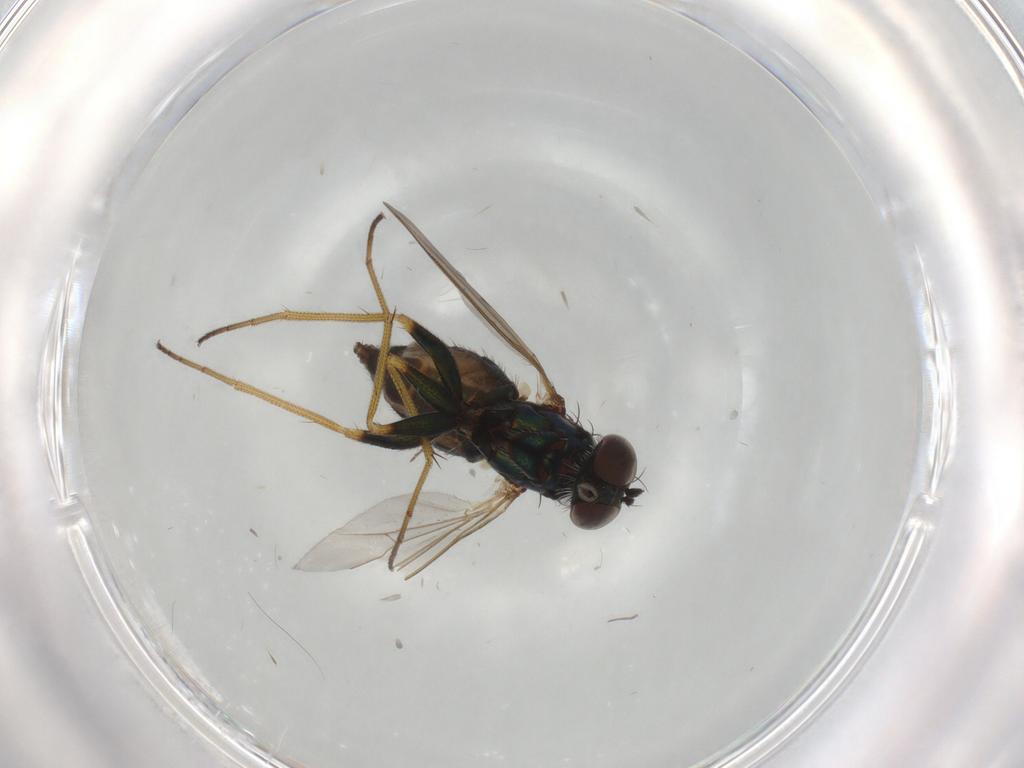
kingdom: Animalia
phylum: Arthropoda
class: Insecta
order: Diptera
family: Dolichopodidae
